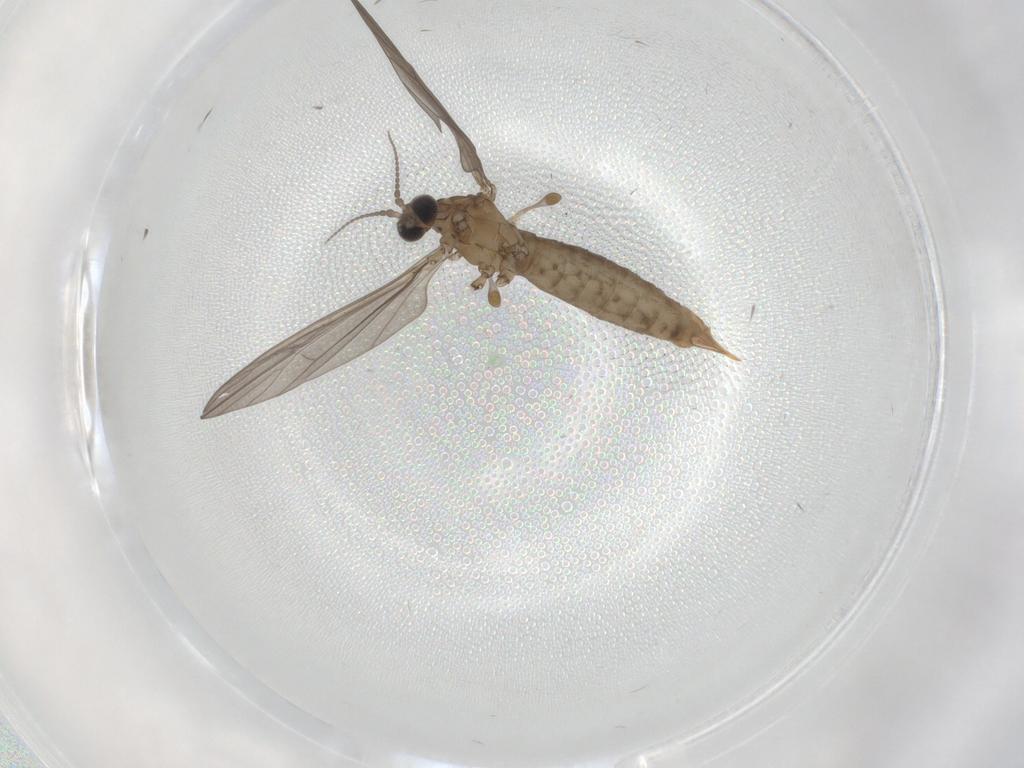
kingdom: Animalia
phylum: Arthropoda
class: Insecta
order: Diptera
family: Limoniidae
